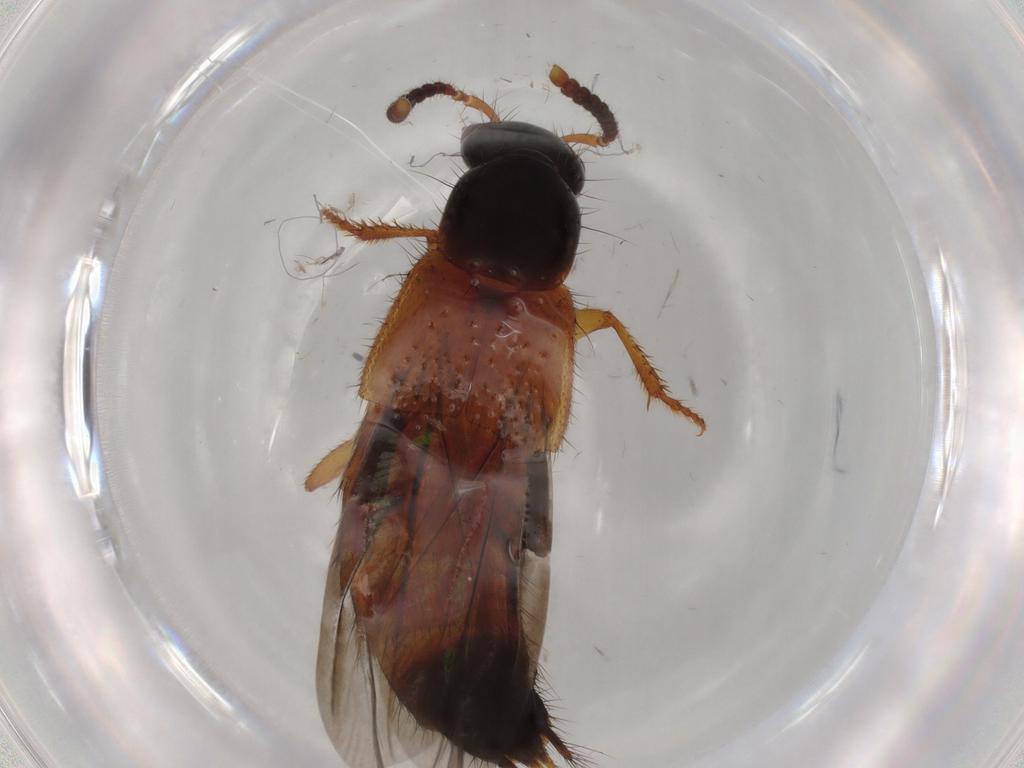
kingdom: Animalia
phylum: Arthropoda
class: Insecta
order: Coleoptera
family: Staphylinidae
